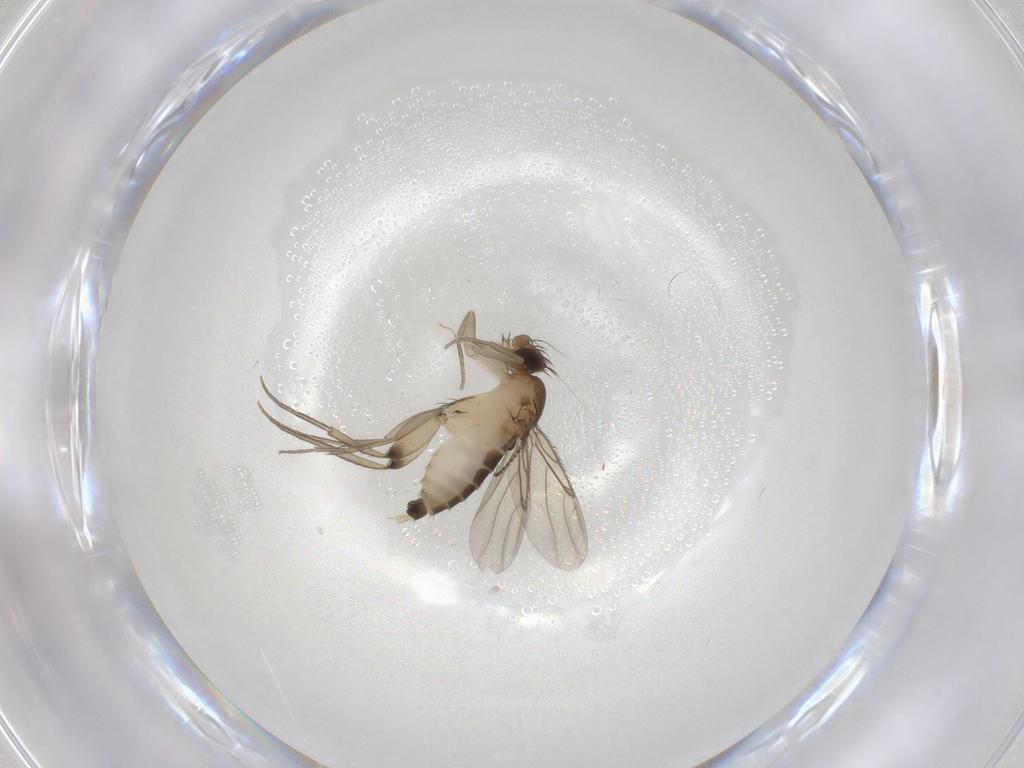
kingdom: Animalia
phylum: Arthropoda
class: Insecta
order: Diptera
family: Cecidomyiidae
